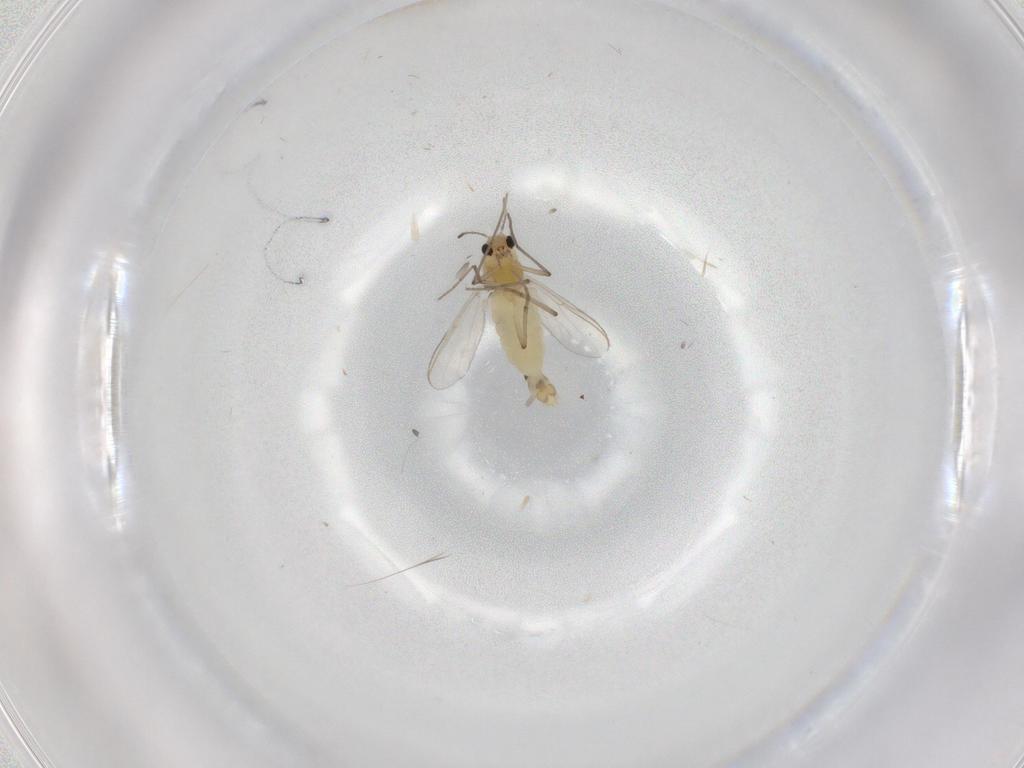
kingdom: Animalia
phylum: Arthropoda
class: Insecta
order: Diptera
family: Chironomidae
